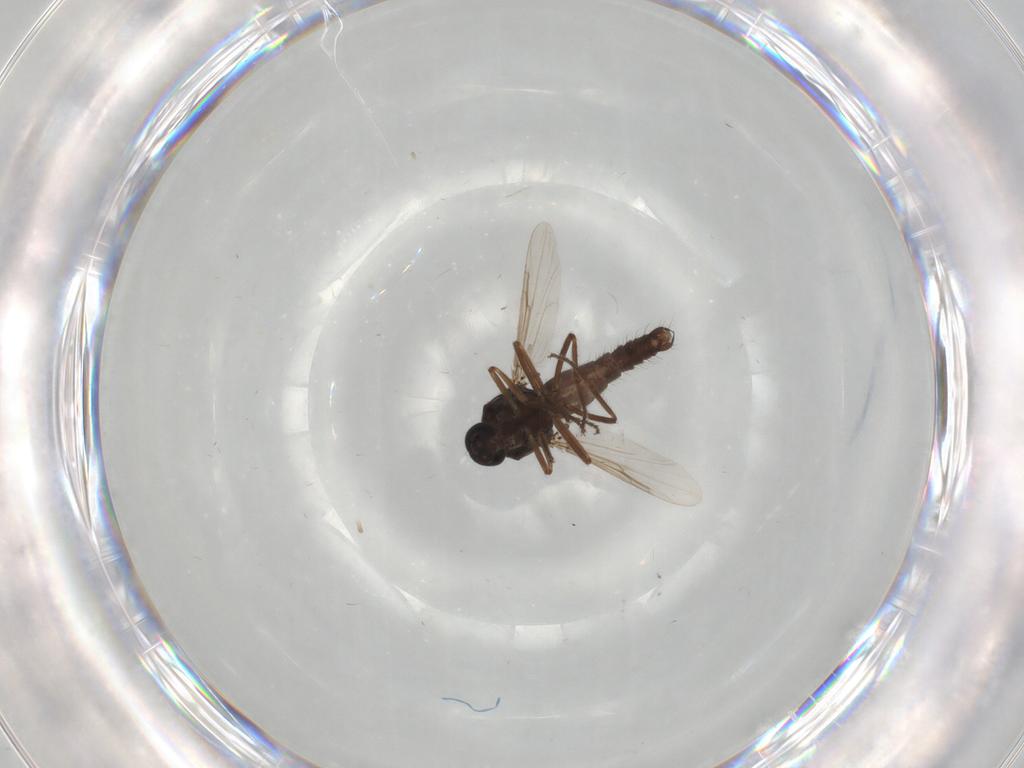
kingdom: Animalia
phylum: Arthropoda
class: Insecta
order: Diptera
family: Ceratopogonidae
